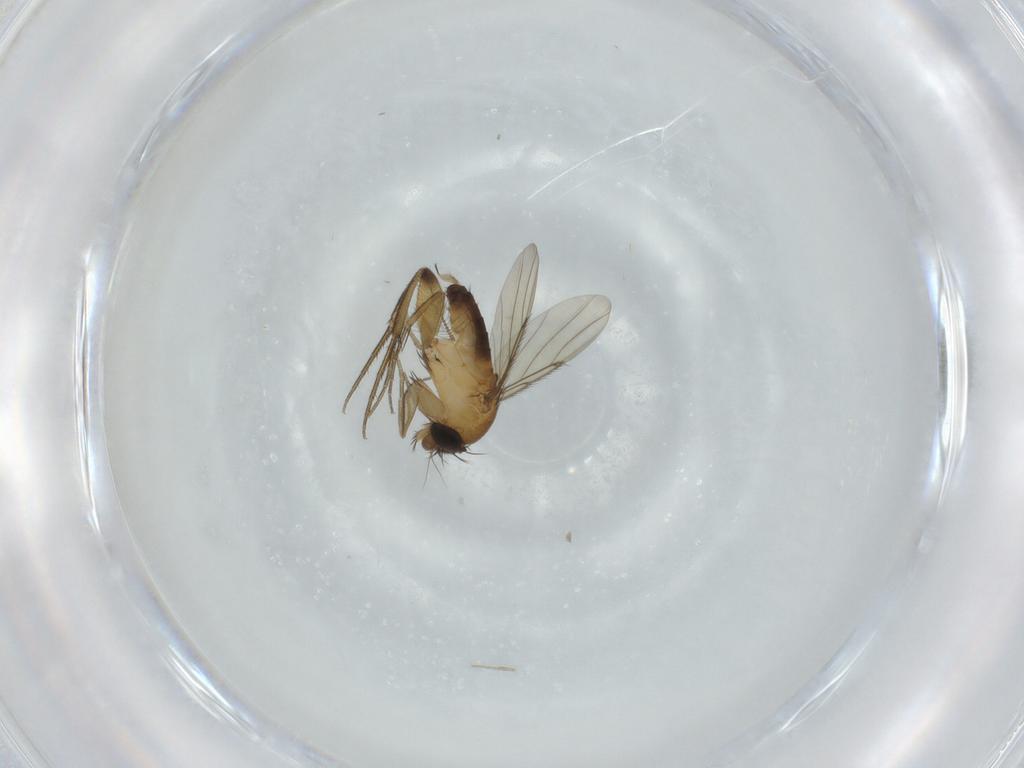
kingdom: Animalia
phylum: Arthropoda
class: Insecta
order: Diptera
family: Phoridae
